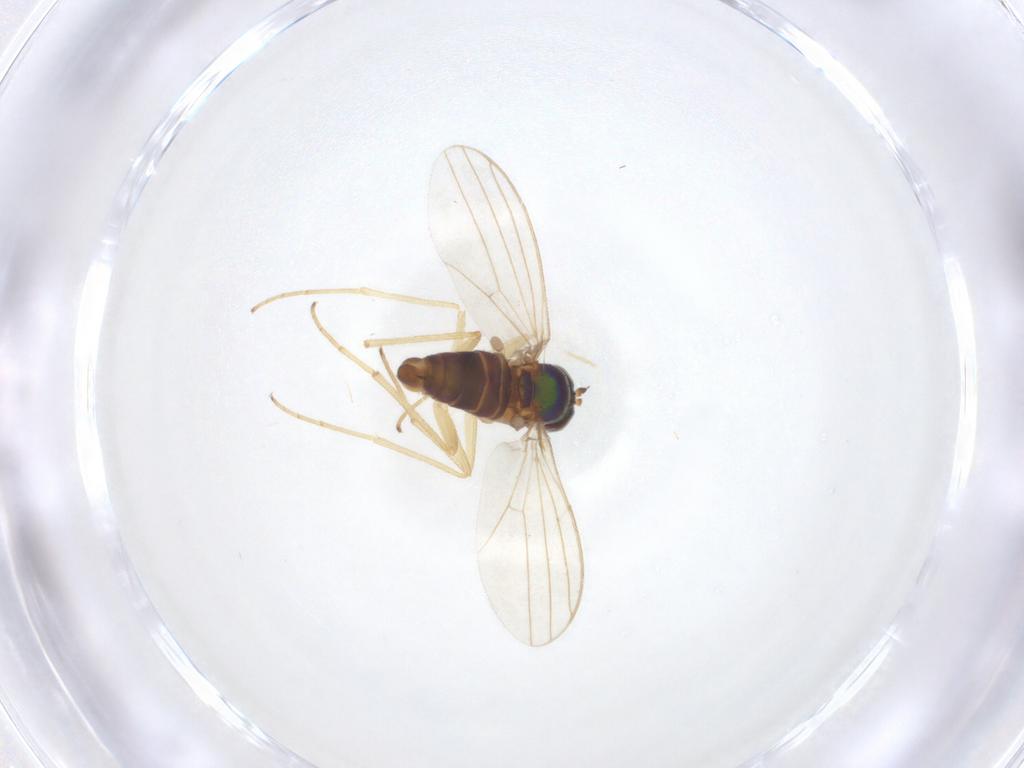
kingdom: Animalia
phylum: Arthropoda
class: Insecta
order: Diptera
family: Dolichopodidae
